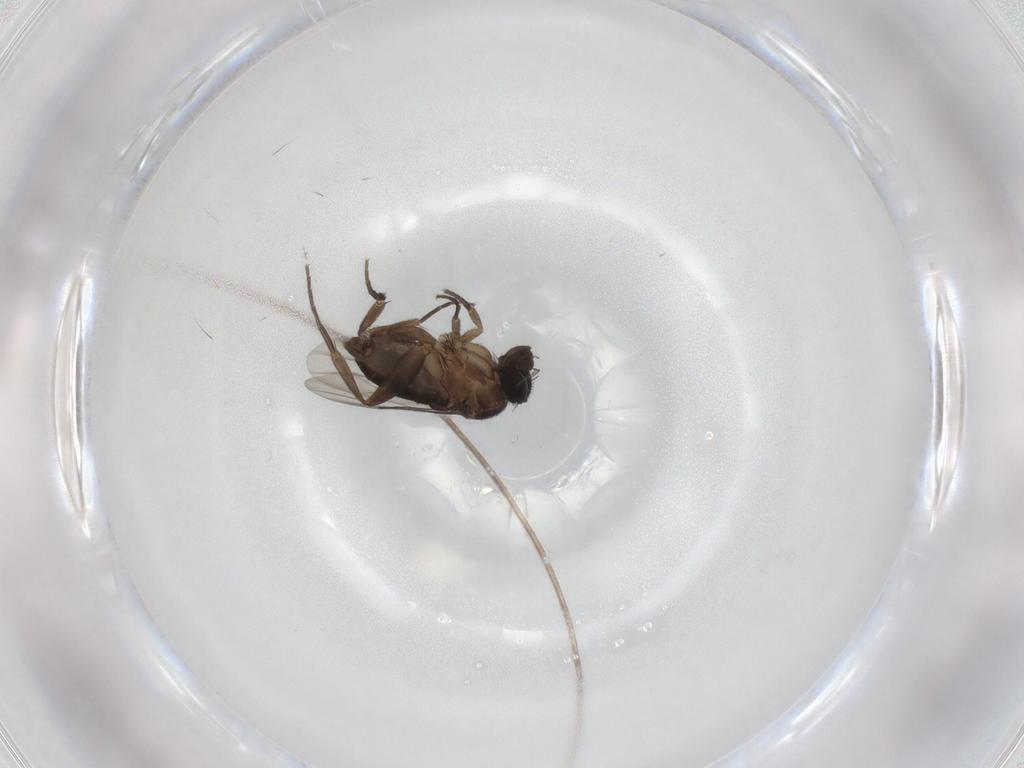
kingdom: Animalia
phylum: Arthropoda
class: Insecta
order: Diptera
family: Phoridae
